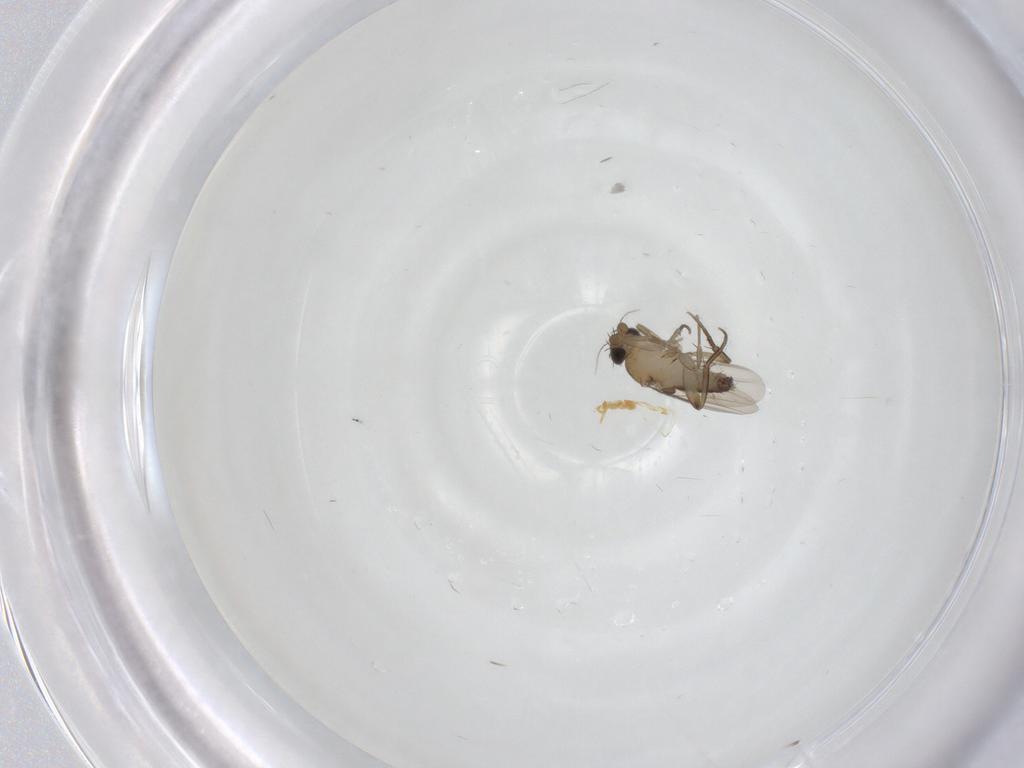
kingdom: Animalia
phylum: Arthropoda
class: Insecta
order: Diptera
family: Phoridae
